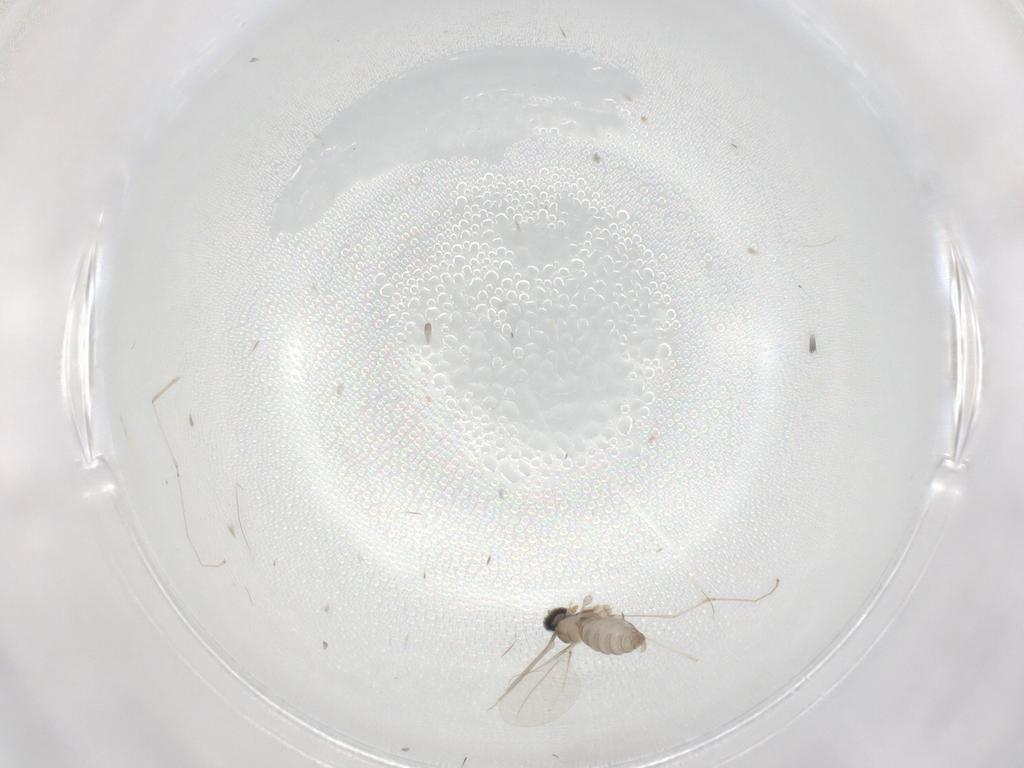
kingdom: Animalia
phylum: Arthropoda
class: Insecta
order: Diptera
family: Cecidomyiidae
